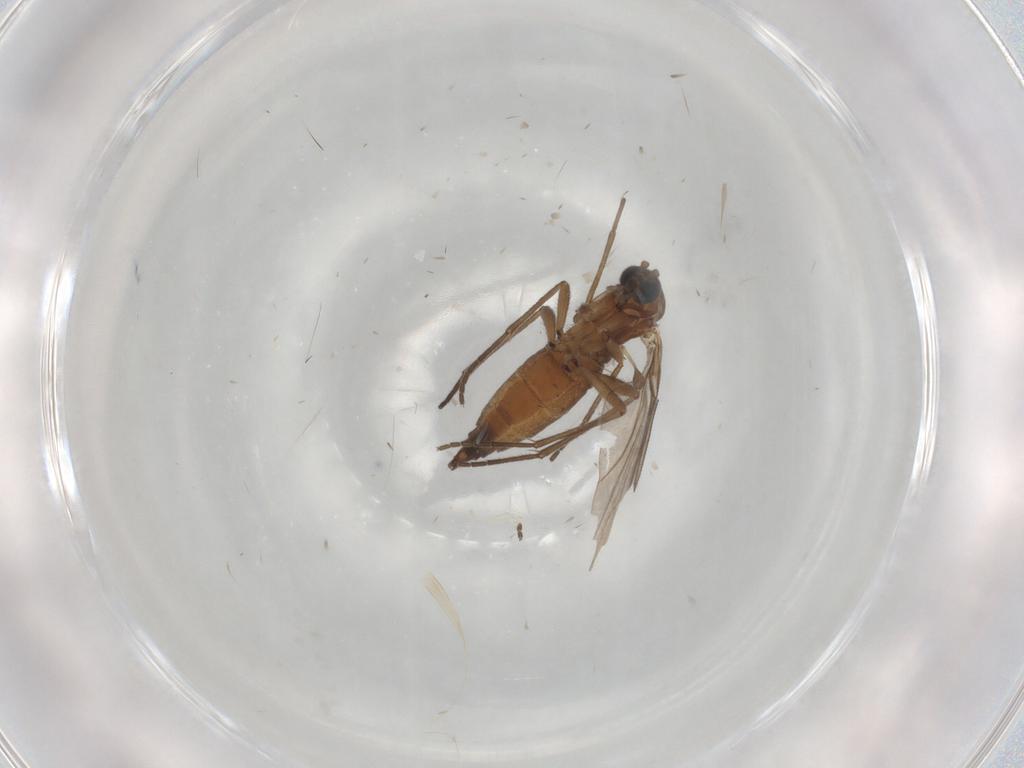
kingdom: Animalia
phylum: Arthropoda
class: Insecta
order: Diptera
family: Sciaridae
